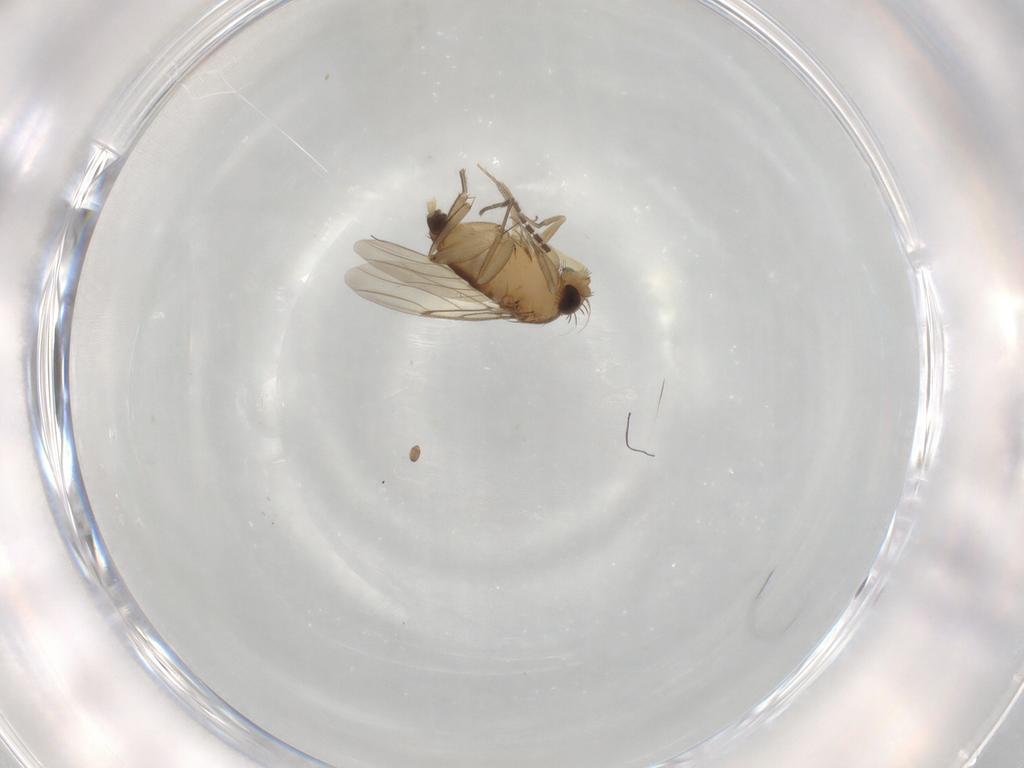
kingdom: Animalia
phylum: Arthropoda
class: Insecta
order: Diptera
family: Sciaridae
